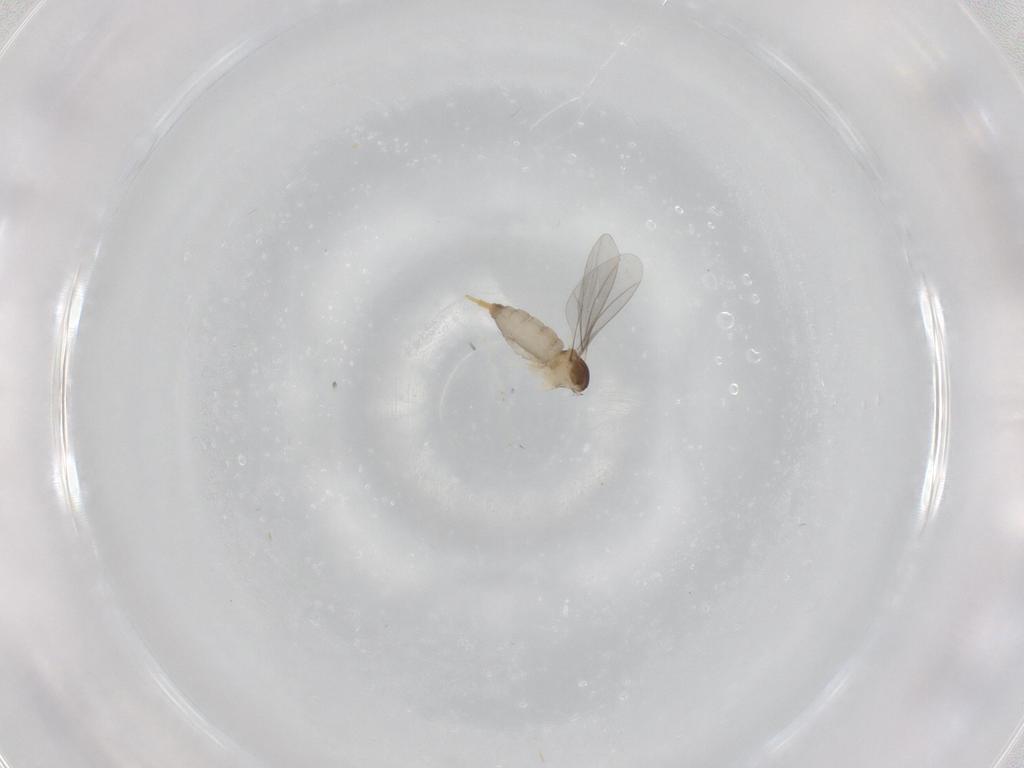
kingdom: Animalia
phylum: Arthropoda
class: Insecta
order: Diptera
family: Cecidomyiidae
